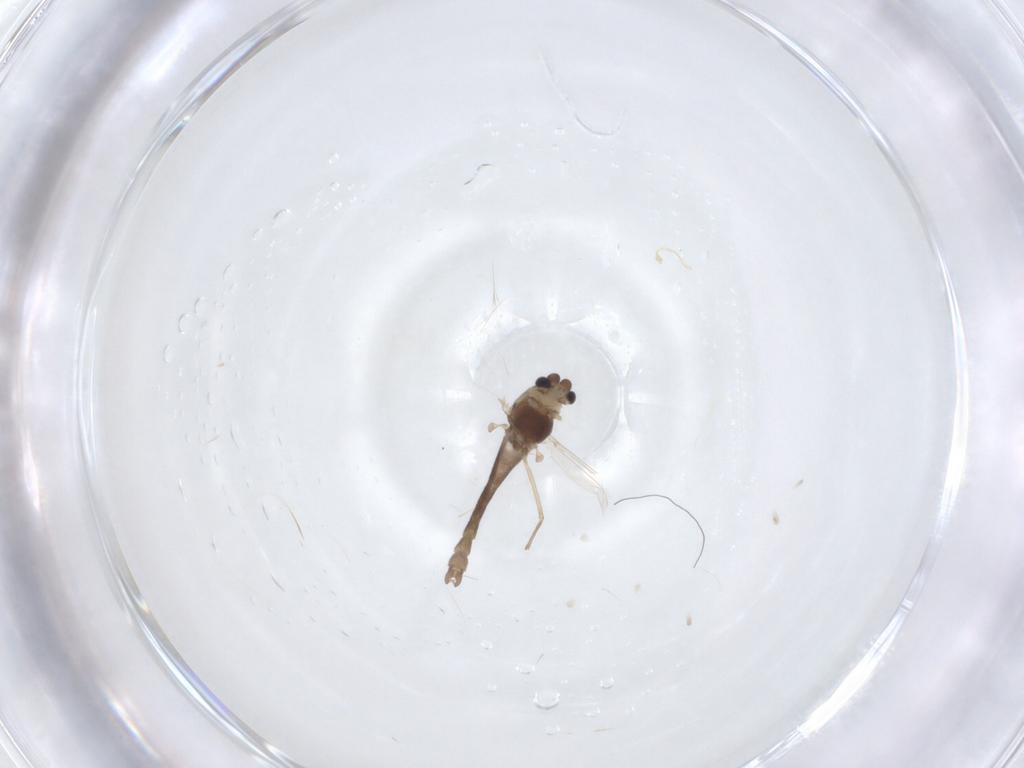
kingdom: Animalia
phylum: Arthropoda
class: Insecta
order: Diptera
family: Chironomidae
